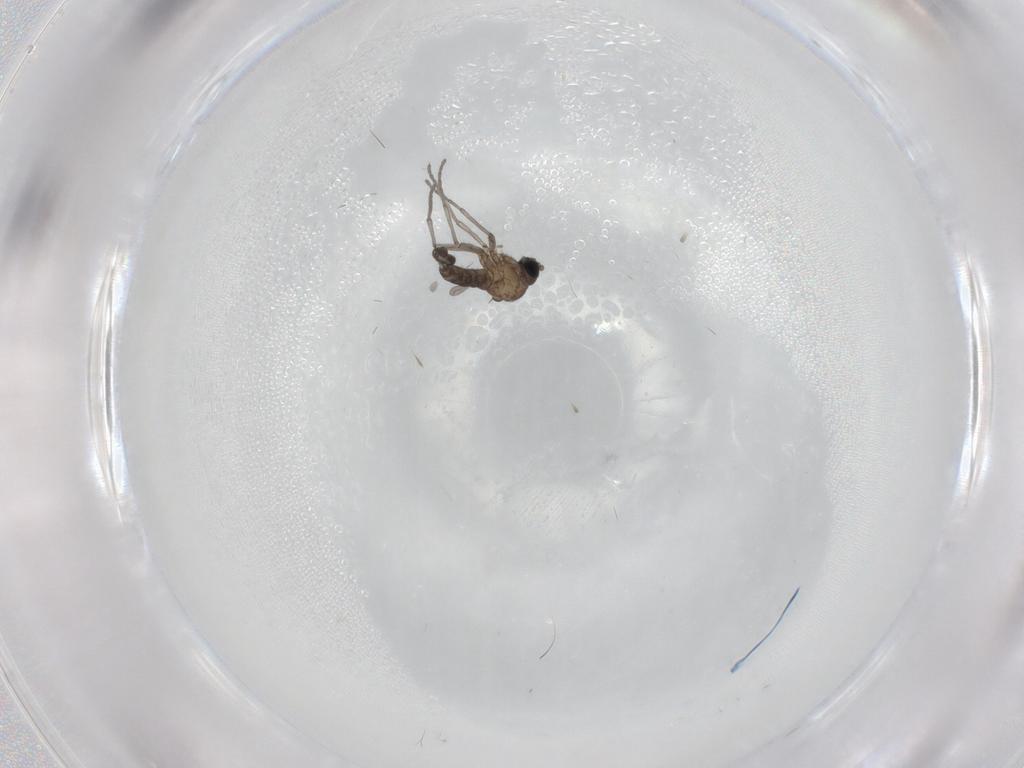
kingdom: Animalia
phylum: Arthropoda
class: Insecta
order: Diptera
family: Sciaridae
